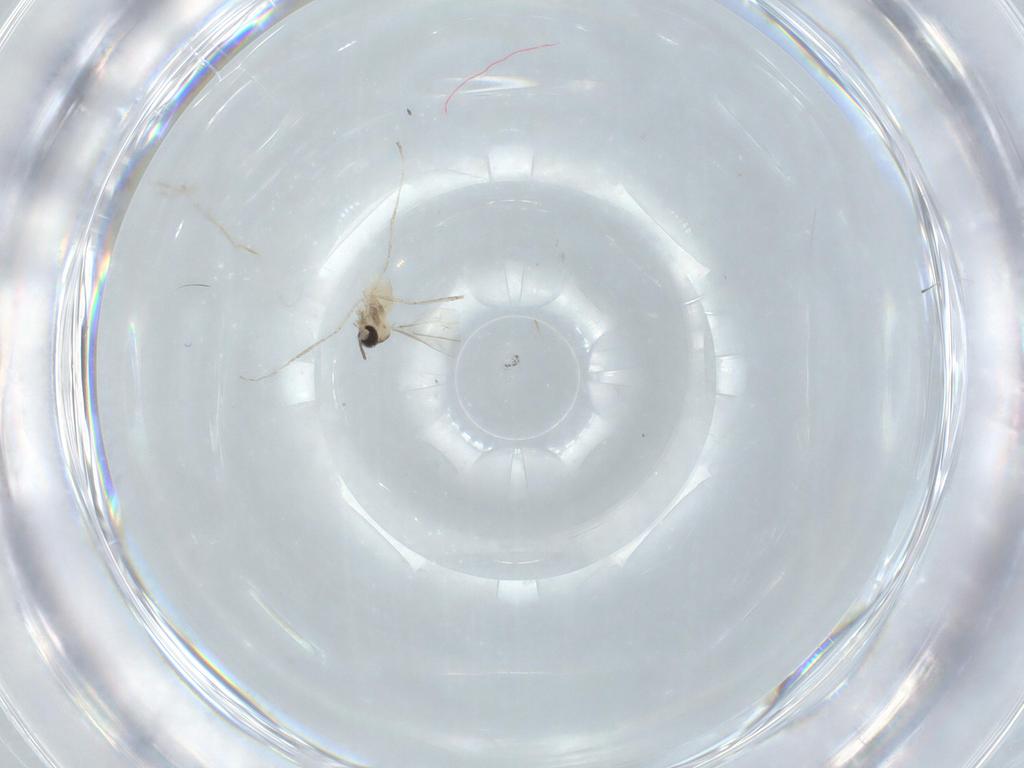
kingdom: Animalia
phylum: Arthropoda
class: Insecta
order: Diptera
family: Cecidomyiidae
